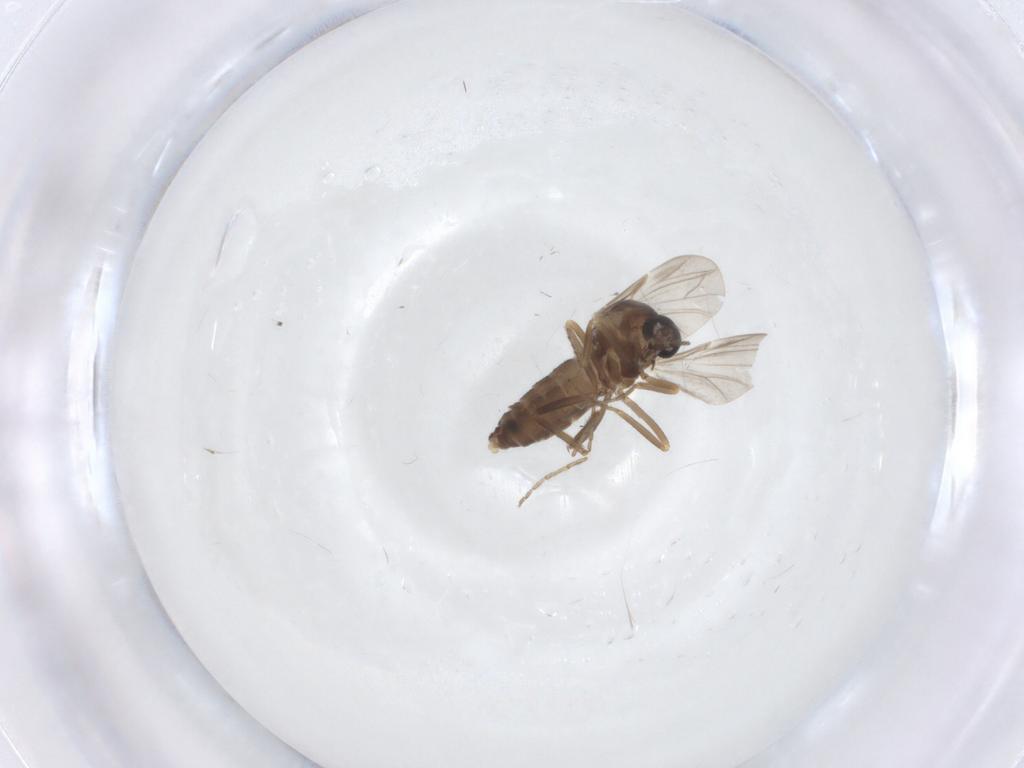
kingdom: Animalia
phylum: Arthropoda
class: Insecta
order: Diptera
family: Ceratopogonidae
